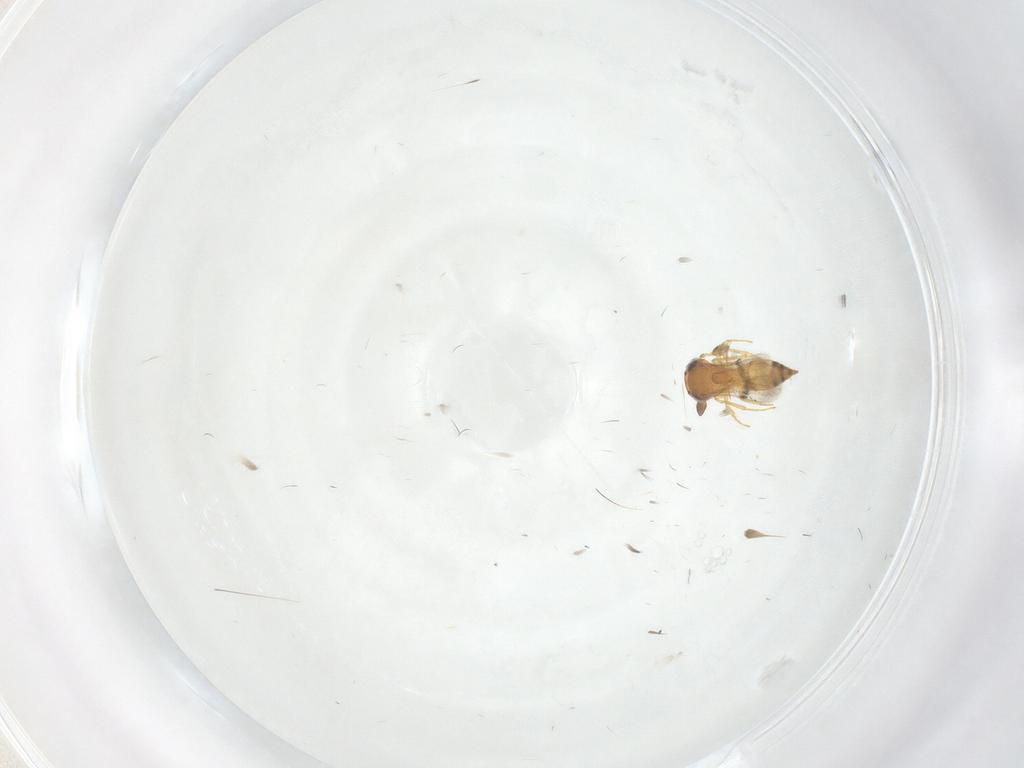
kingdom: Animalia
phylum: Arthropoda
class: Insecta
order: Hymenoptera
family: Scelionidae
